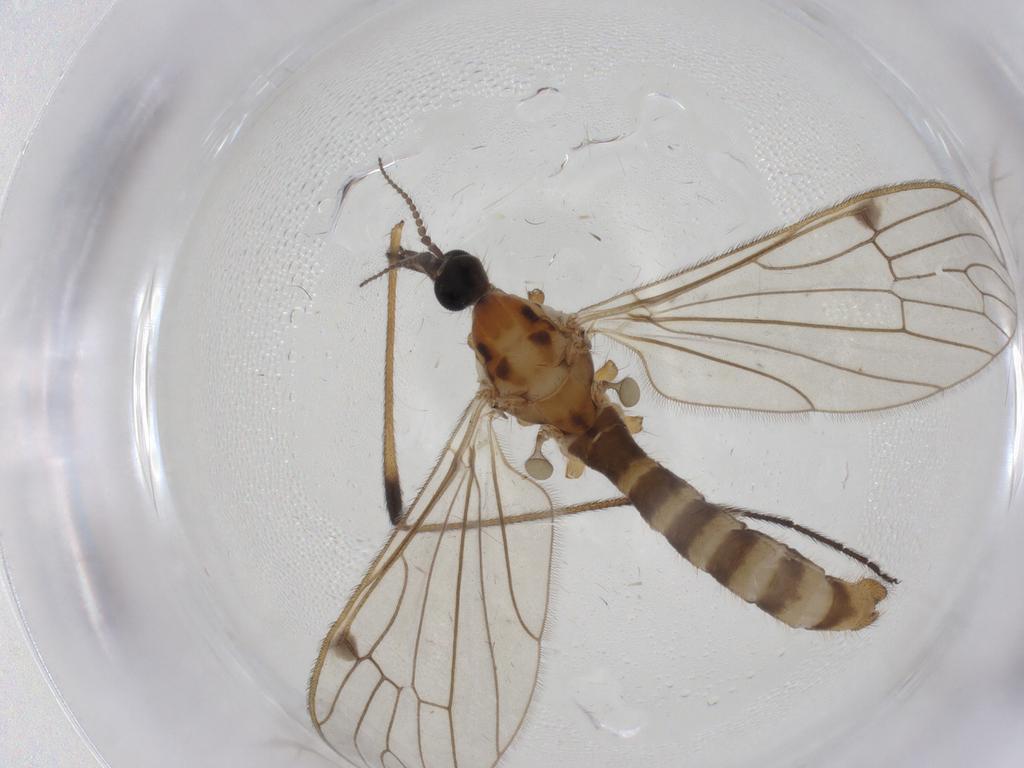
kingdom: Animalia
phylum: Arthropoda
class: Insecta
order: Diptera
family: Limoniidae
